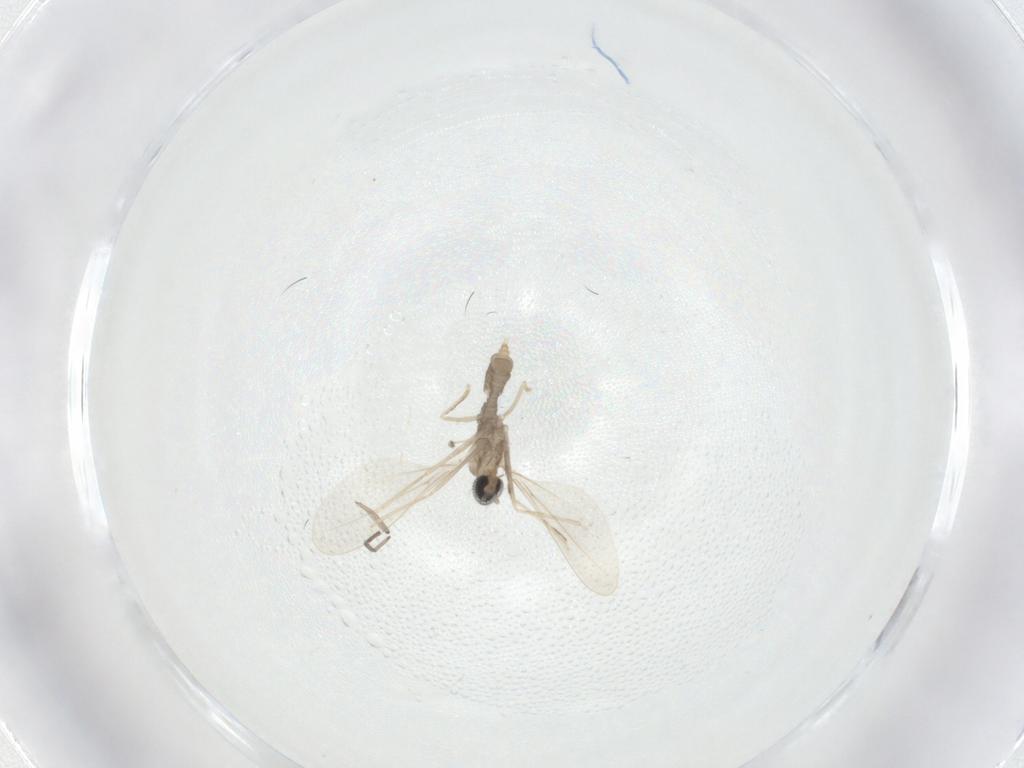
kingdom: Animalia
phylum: Arthropoda
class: Insecta
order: Diptera
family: Cecidomyiidae
